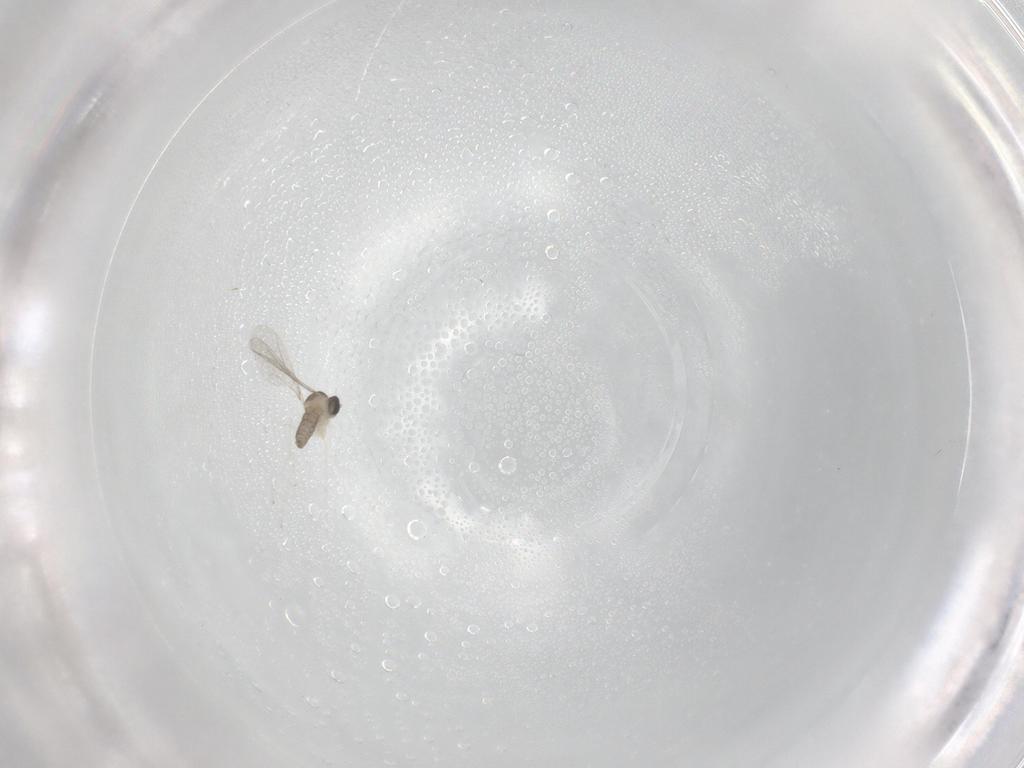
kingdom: Animalia
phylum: Arthropoda
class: Insecta
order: Diptera
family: Cecidomyiidae
